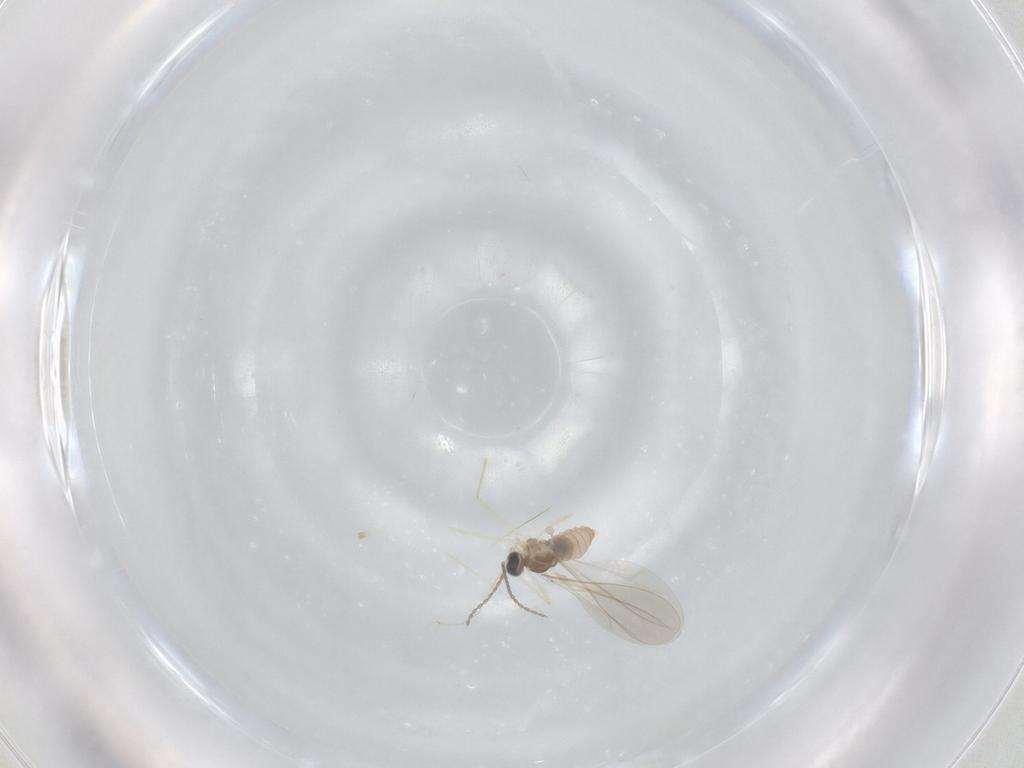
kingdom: Animalia
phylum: Arthropoda
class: Insecta
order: Diptera
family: Cecidomyiidae
